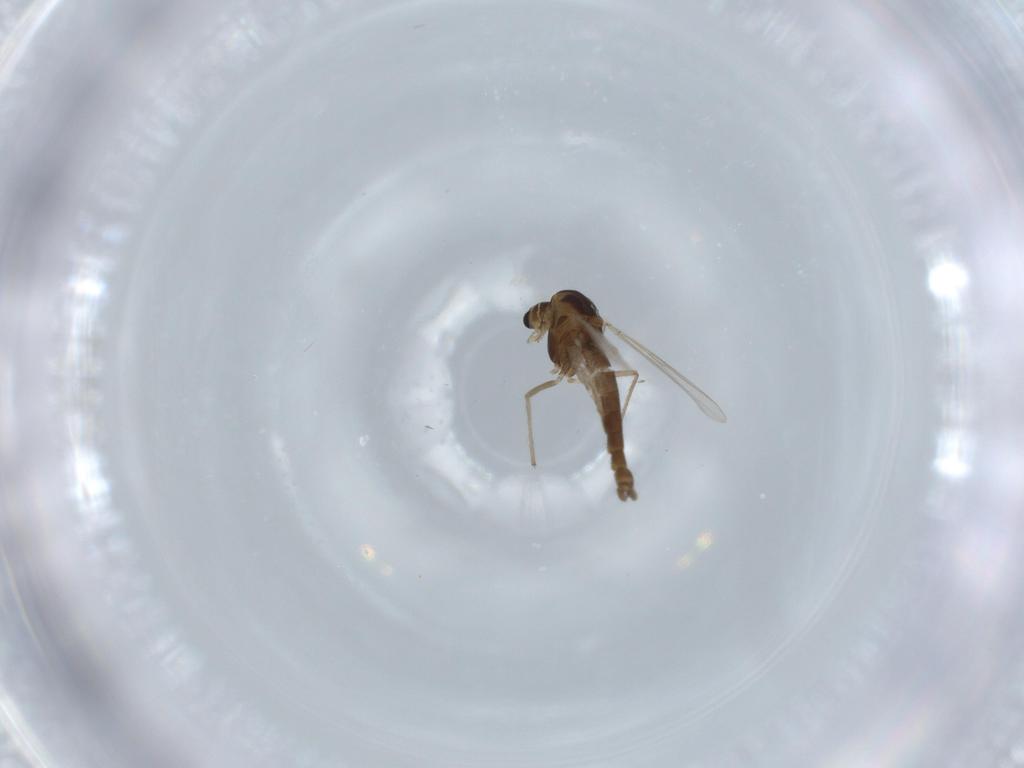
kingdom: Animalia
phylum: Arthropoda
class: Insecta
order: Diptera
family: Chironomidae
